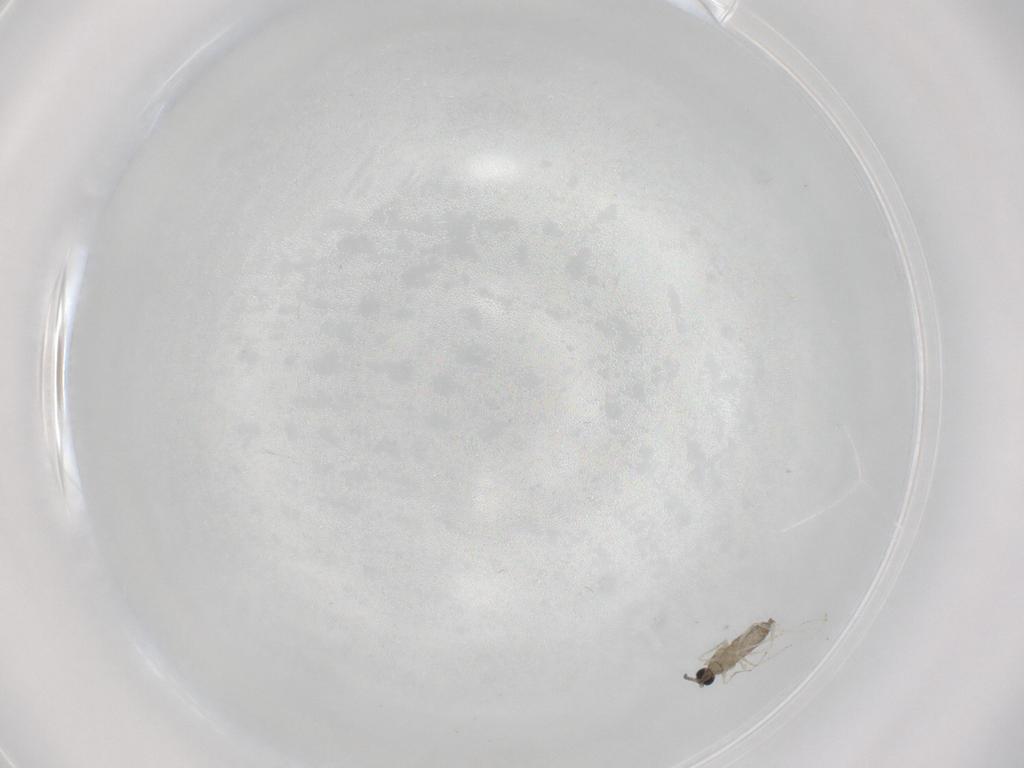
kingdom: Animalia
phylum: Arthropoda
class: Insecta
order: Diptera
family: Cecidomyiidae
